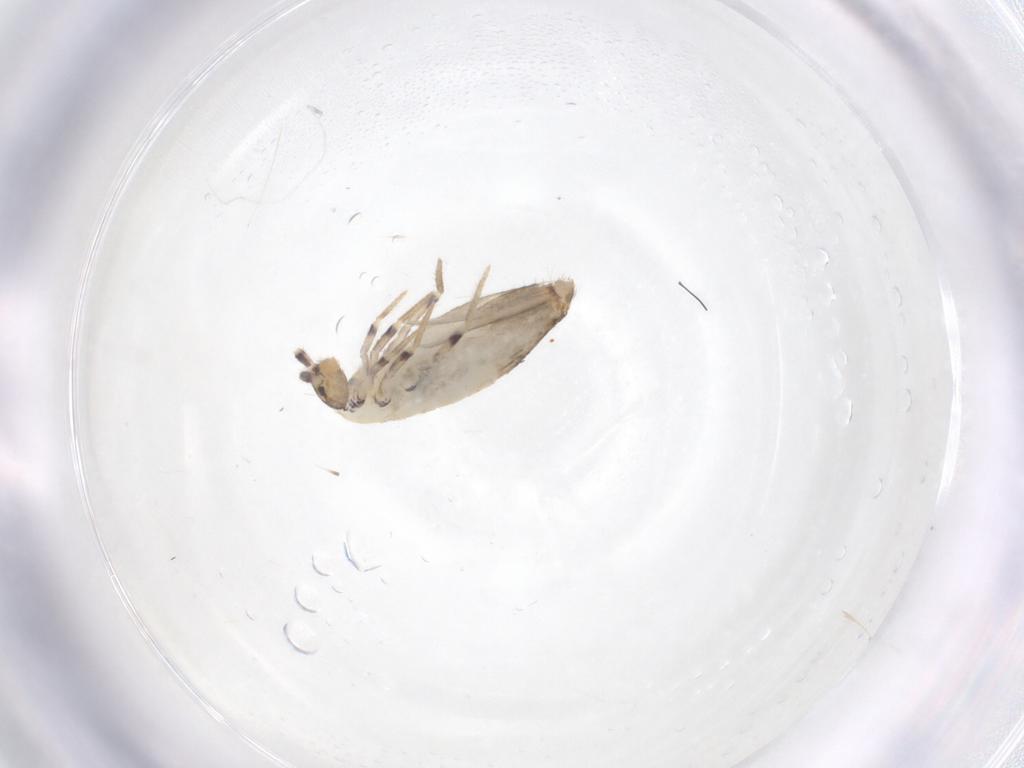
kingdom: Animalia
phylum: Arthropoda
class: Collembola
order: Entomobryomorpha
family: Entomobryidae
